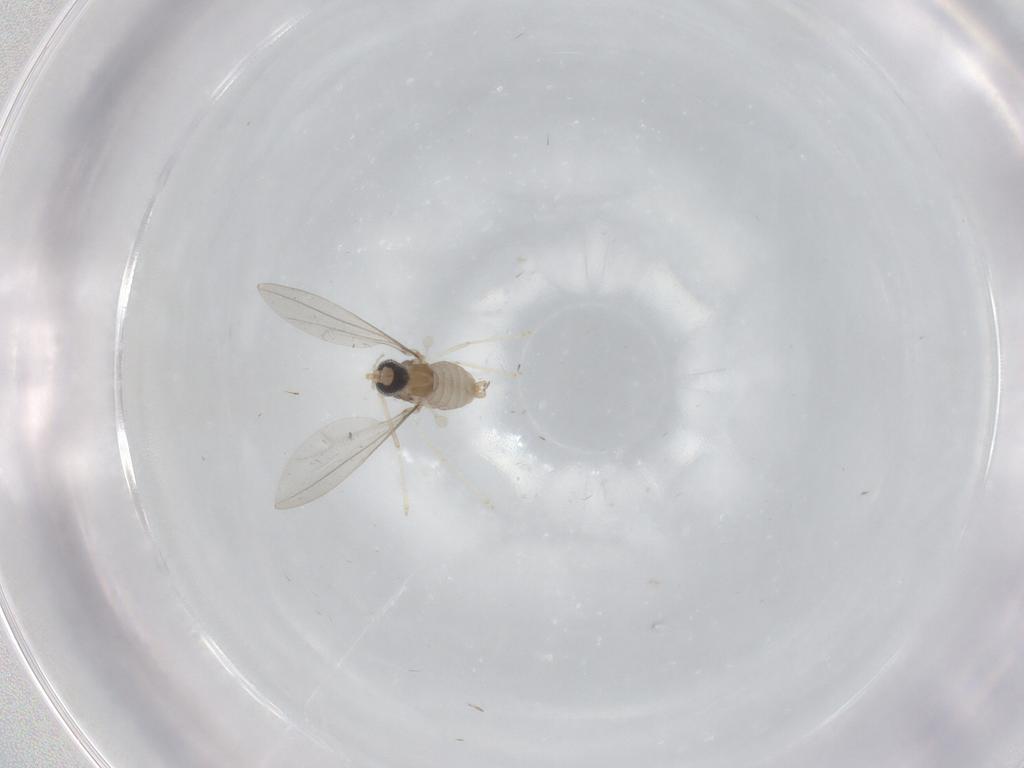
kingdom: Animalia
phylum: Arthropoda
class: Insecta
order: Diptera
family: Cecidomyiidae
